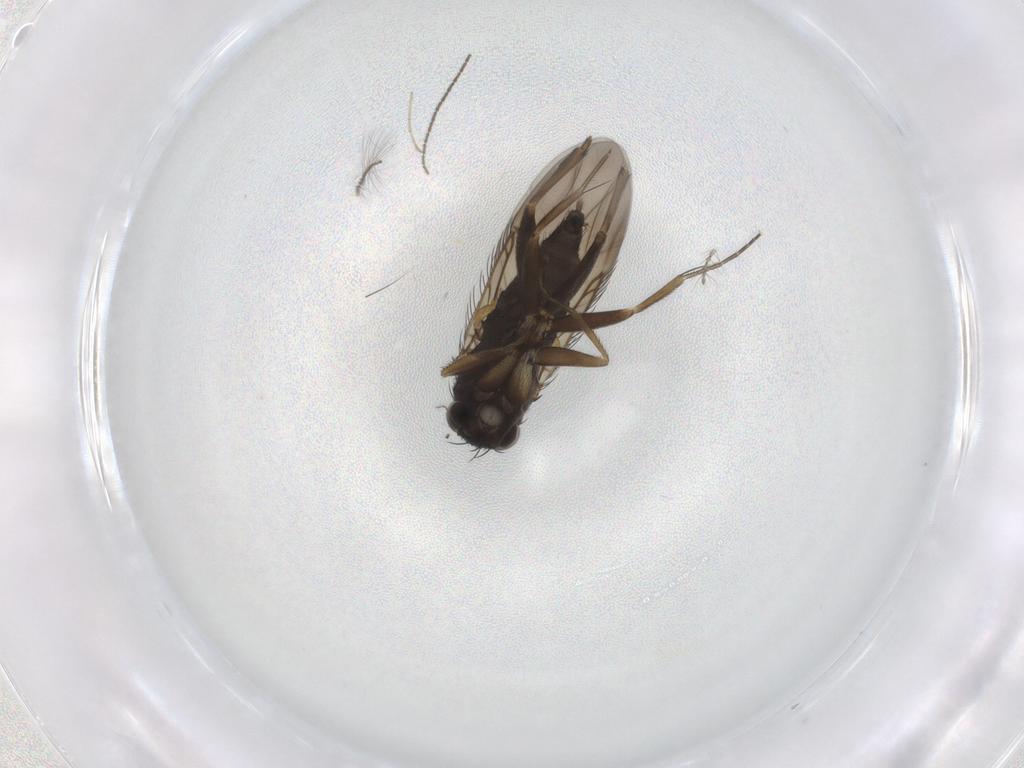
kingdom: Animalia
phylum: Arthropoda
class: Insecta
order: Diptera
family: Phoridae
